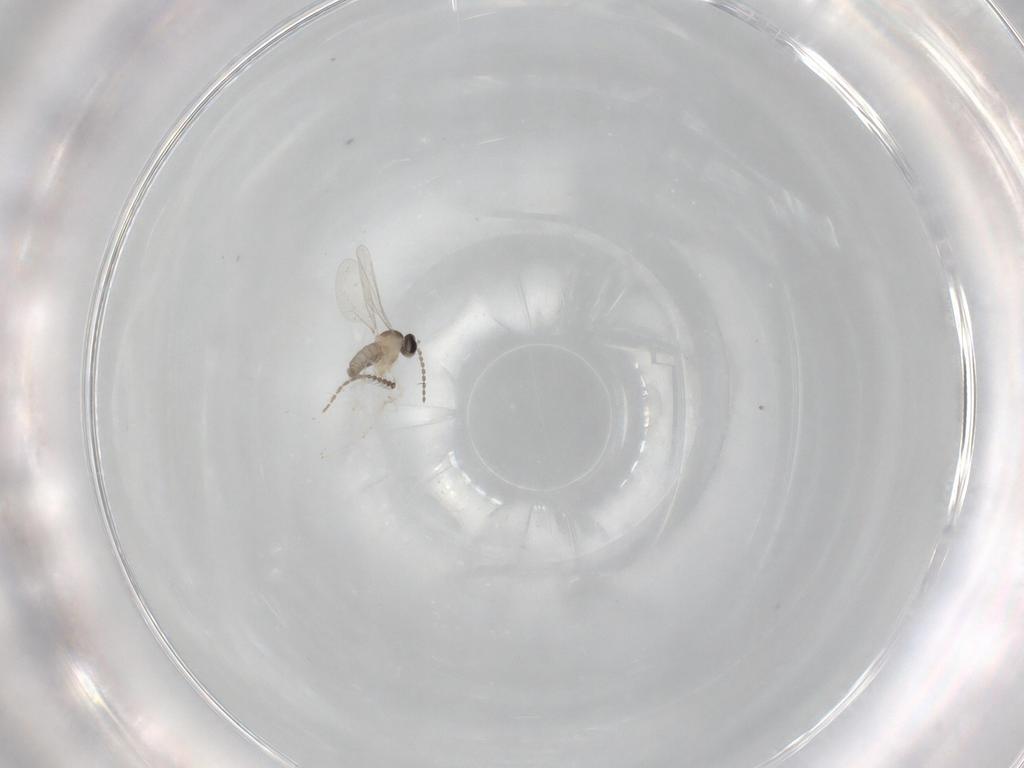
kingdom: Animalia
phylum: Arthropoda
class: Insecta
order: Diptera
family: Cecidomyiidae
